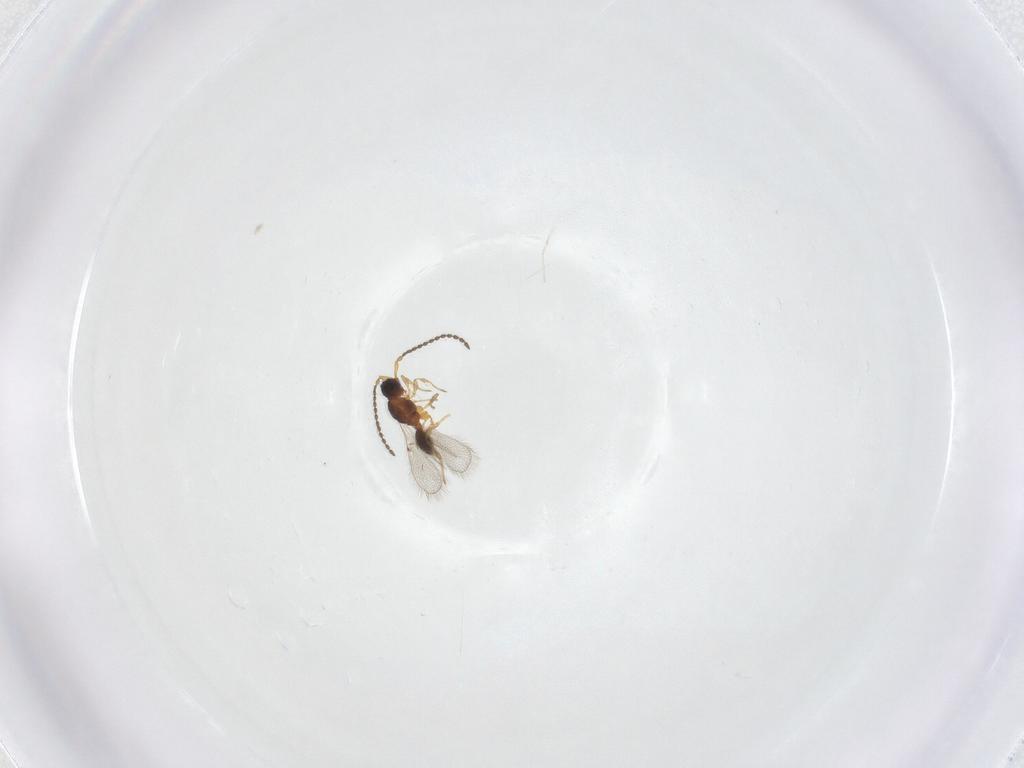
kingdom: Animalia
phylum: Arthropoda
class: Insecta
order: Hymenoptera
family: Diapriidae
